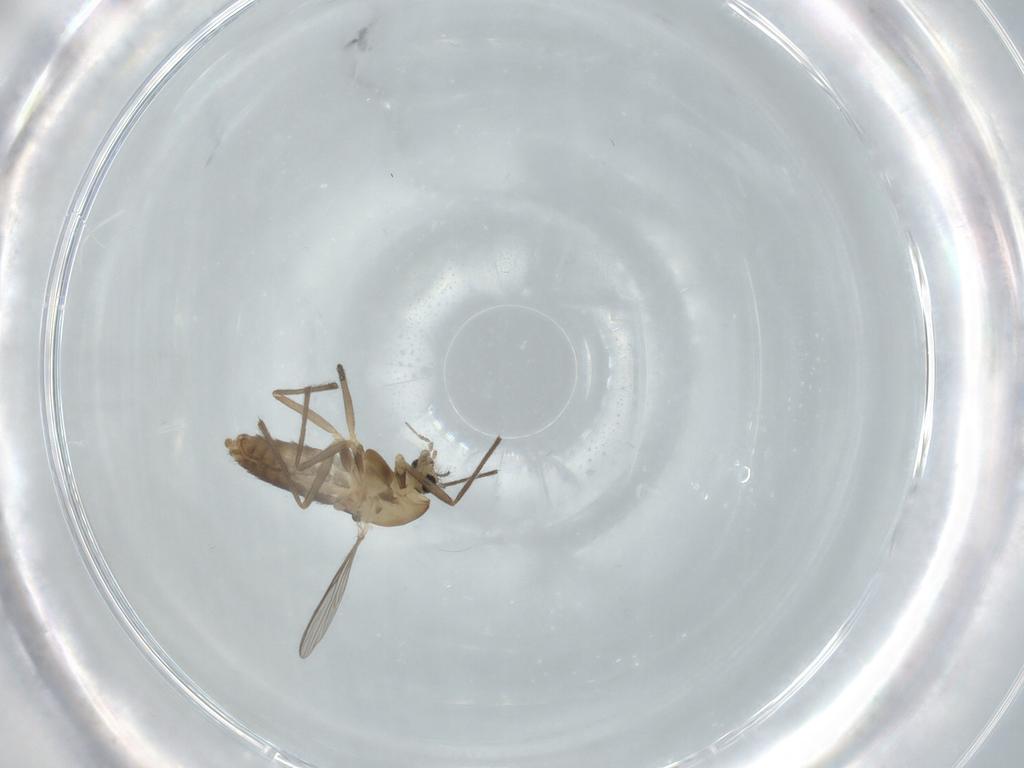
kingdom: Animalia
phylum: Arthropoda
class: Insecta
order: Diptera
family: Chironomidae
